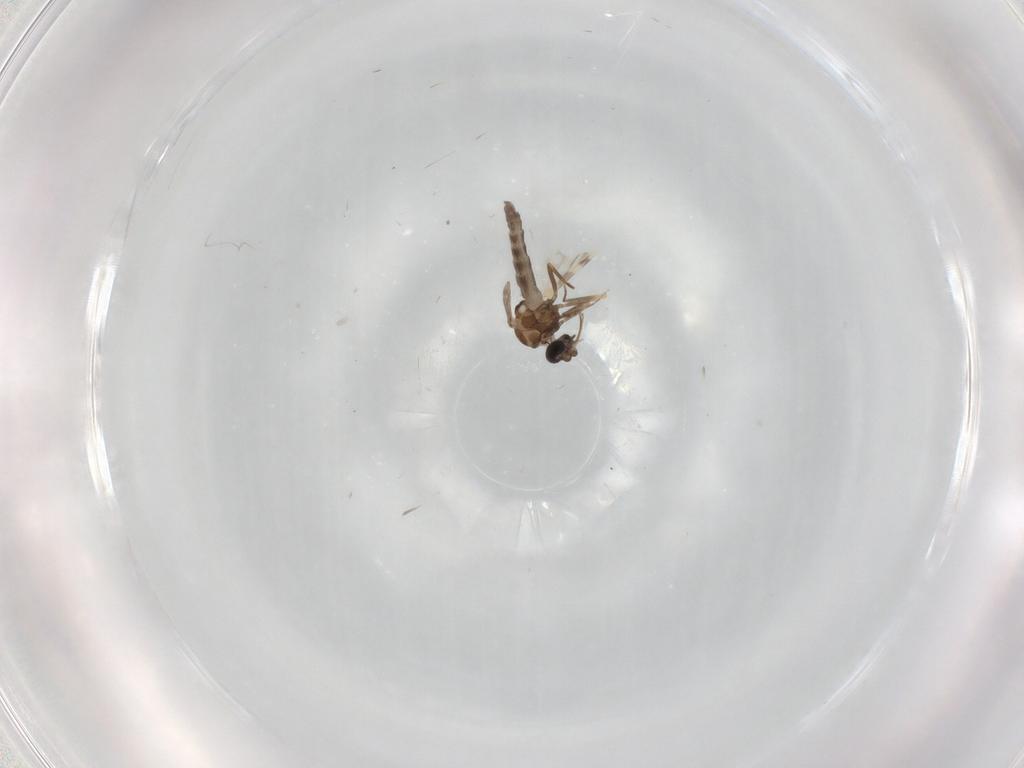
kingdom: Animalia
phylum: Arthropoda
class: Insecta
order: Diptera
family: Ceratopogonidae
